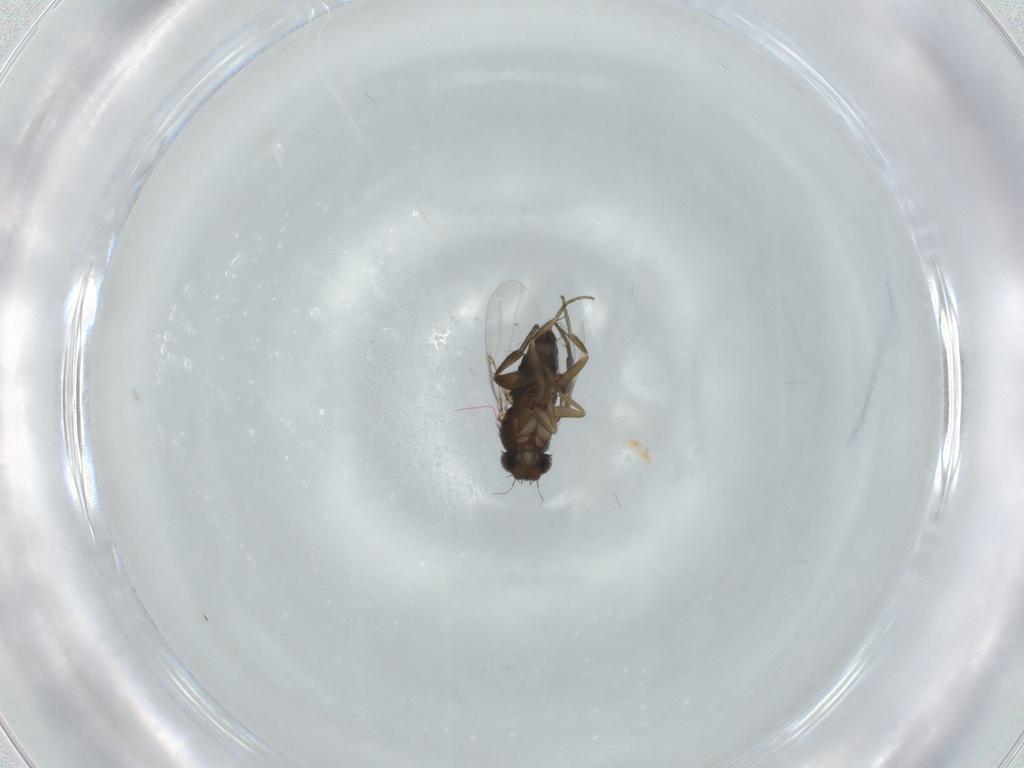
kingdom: Animalia
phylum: Arthropoda
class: Insecta
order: Diptera
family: Phoridae
